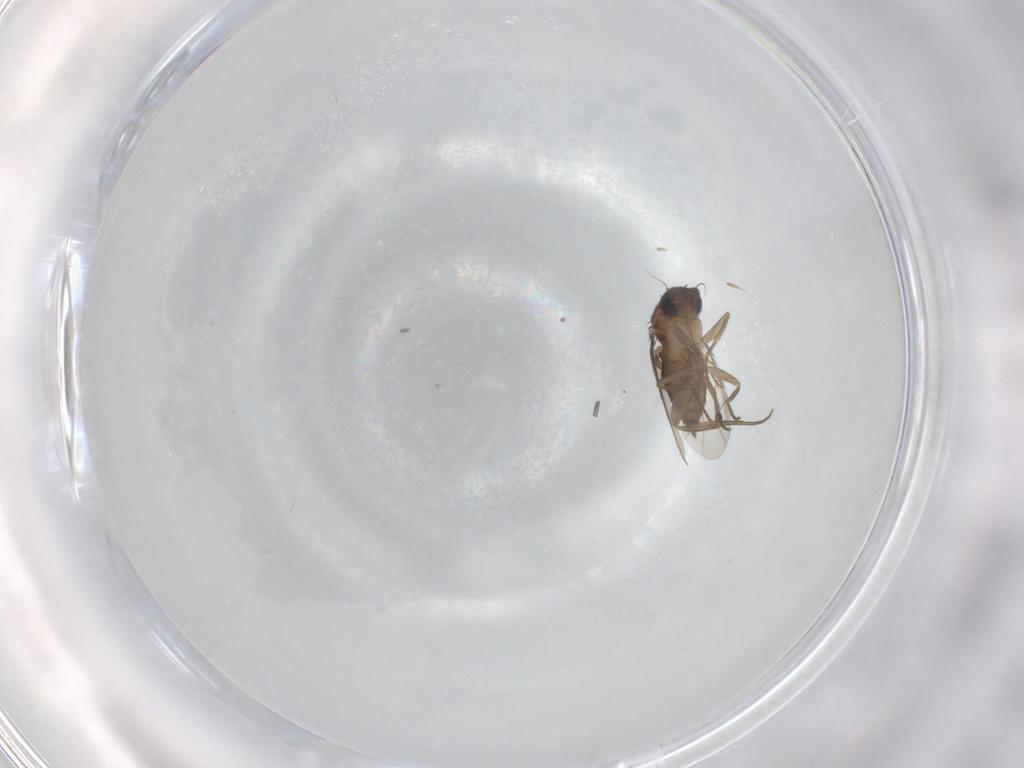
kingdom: Animalia
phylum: Arthropoda
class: Insecta
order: Diptera
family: Phoridae
